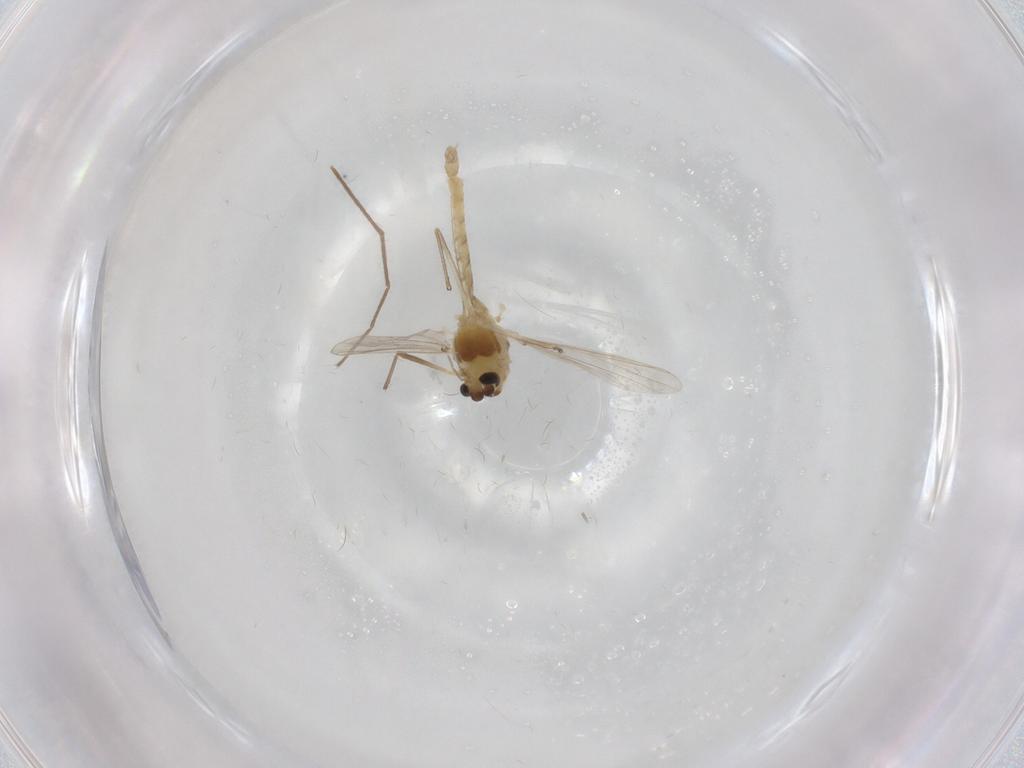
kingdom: Animalia
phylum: Arthropoda
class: Insecta
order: Diptera
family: Chironomidae
